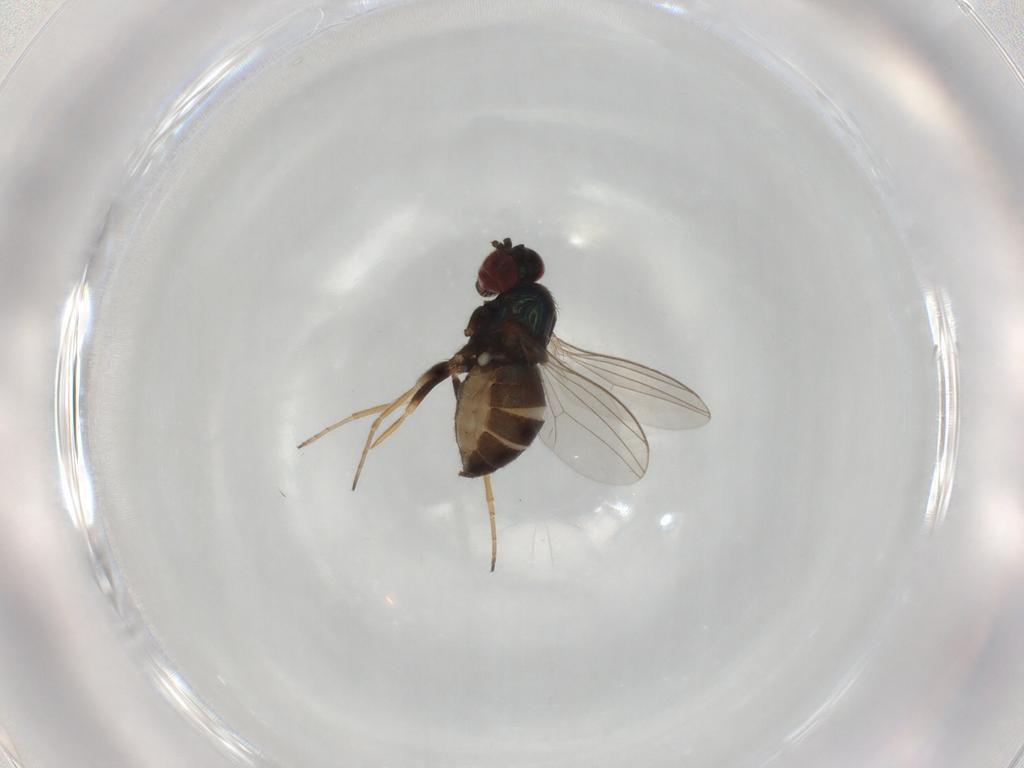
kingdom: Animalia
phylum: Arthropoda
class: Insecta
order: Diptera
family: Dolichopodidae
